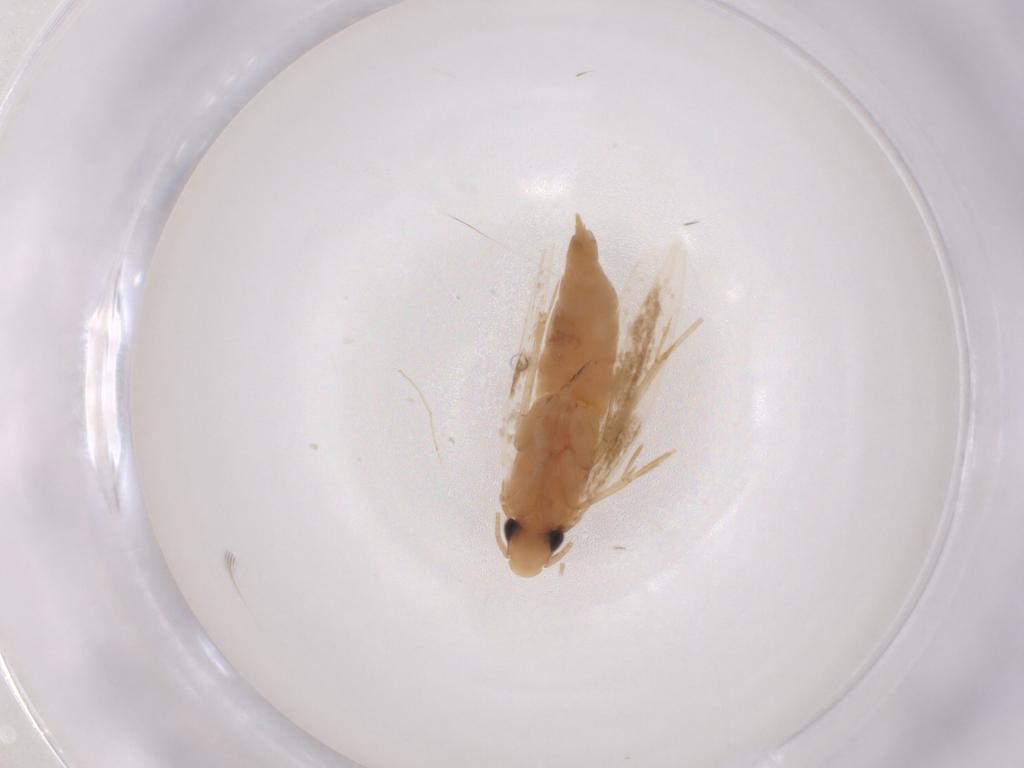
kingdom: Animalia
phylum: Arthropoda
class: Insecta
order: Lepidoptera
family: Tineidae
